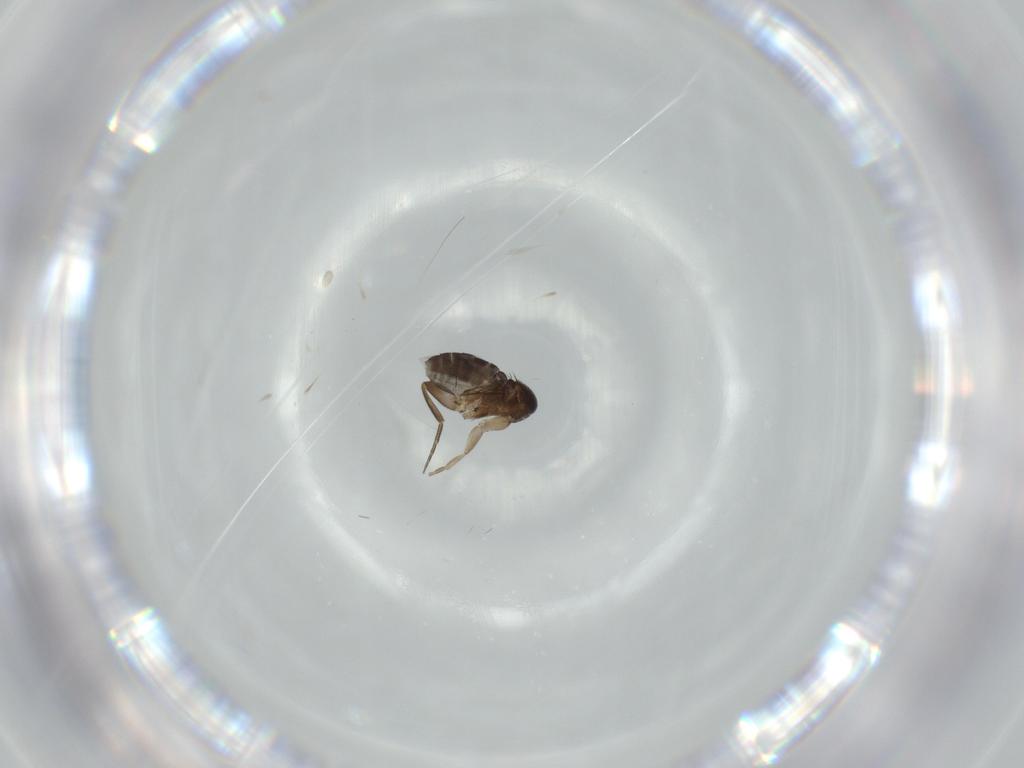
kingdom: Animalia
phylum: Arthropoda
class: Insecta
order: Diptera
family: Phoridae
